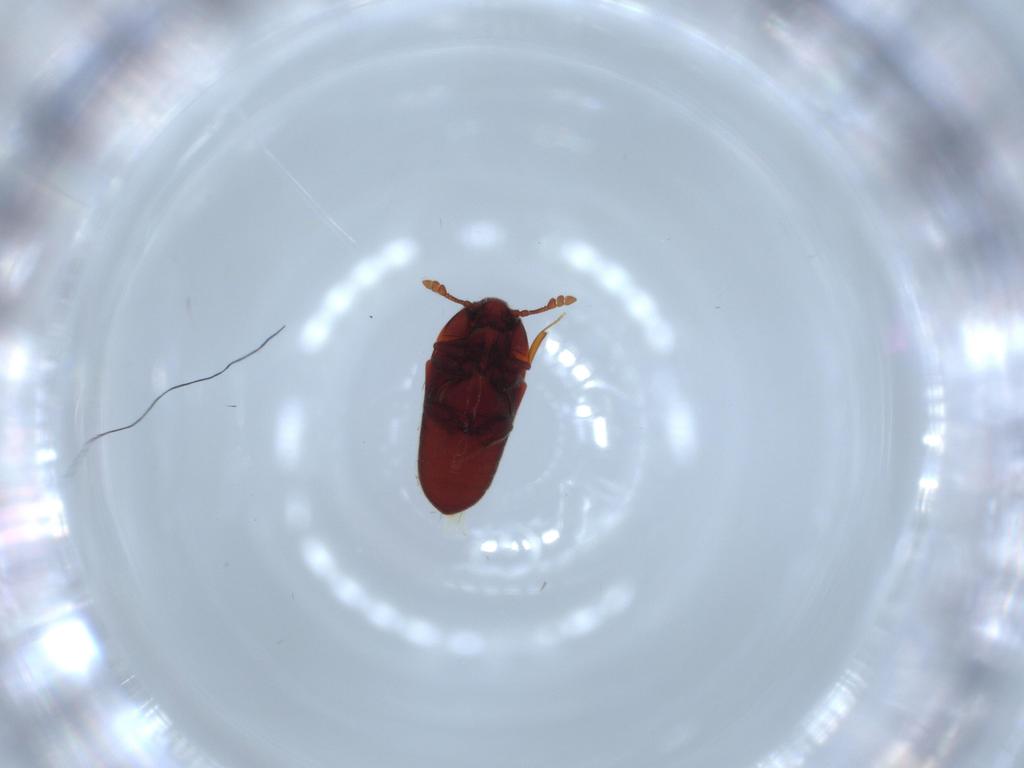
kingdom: Animalia
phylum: Arthropoda
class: Insecta
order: Coleoptera
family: Throscidae
